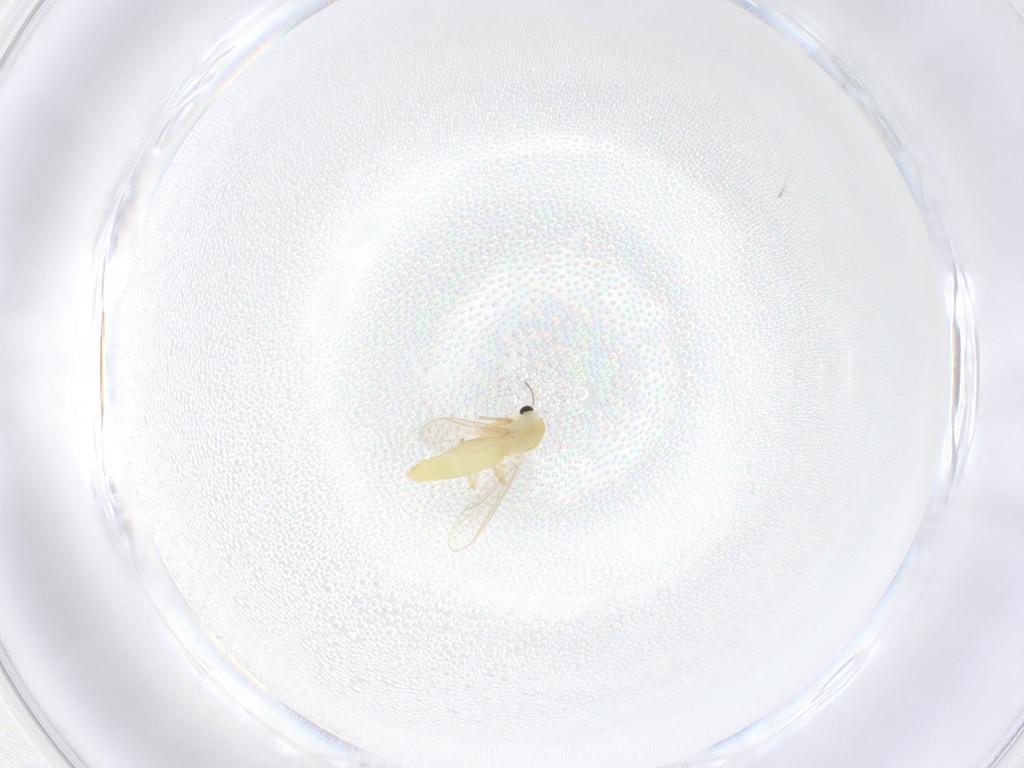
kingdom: Animalia
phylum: Arthropoda
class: Insecta
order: Diptera
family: Chironomidae
